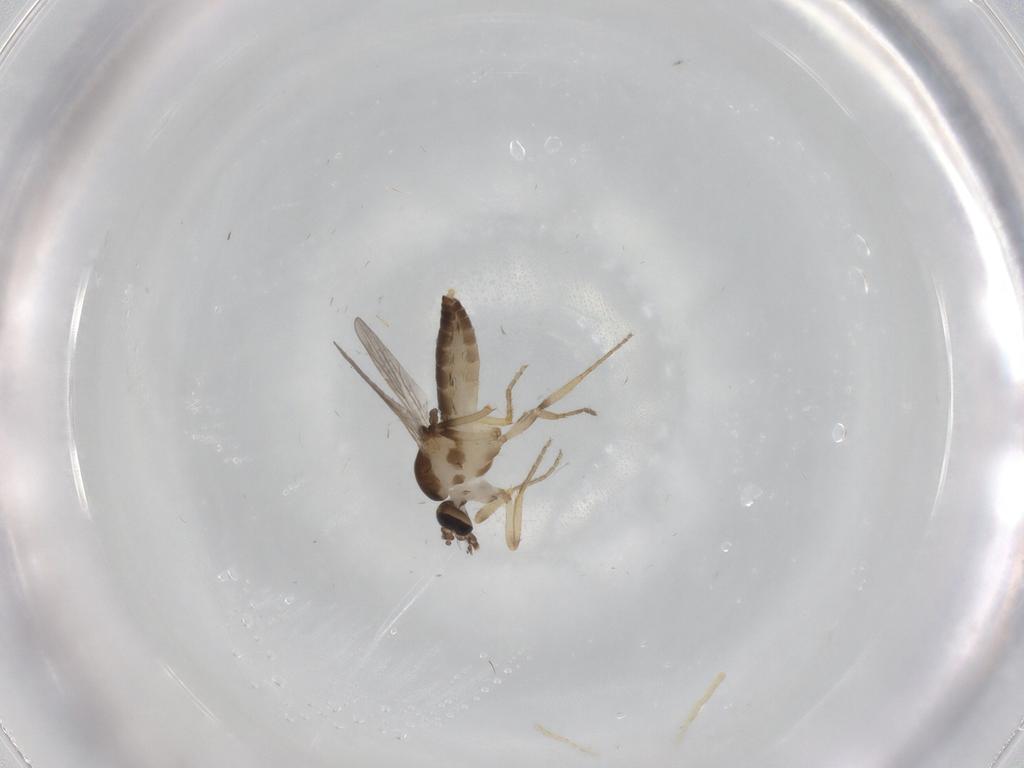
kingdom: Animalia
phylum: Arthropoda
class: Insecta
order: Diptera
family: Ceratopogonidae
